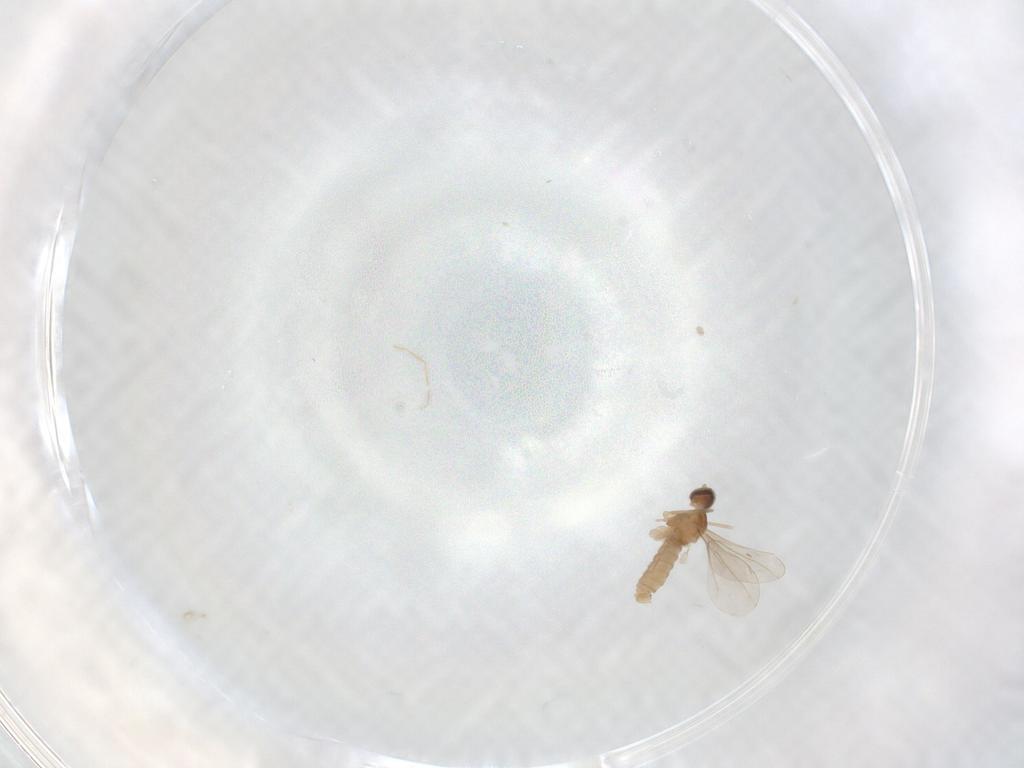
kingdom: Animalia
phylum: Arthropoda
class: Insecta
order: Diptera
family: Cecidomyiidae
